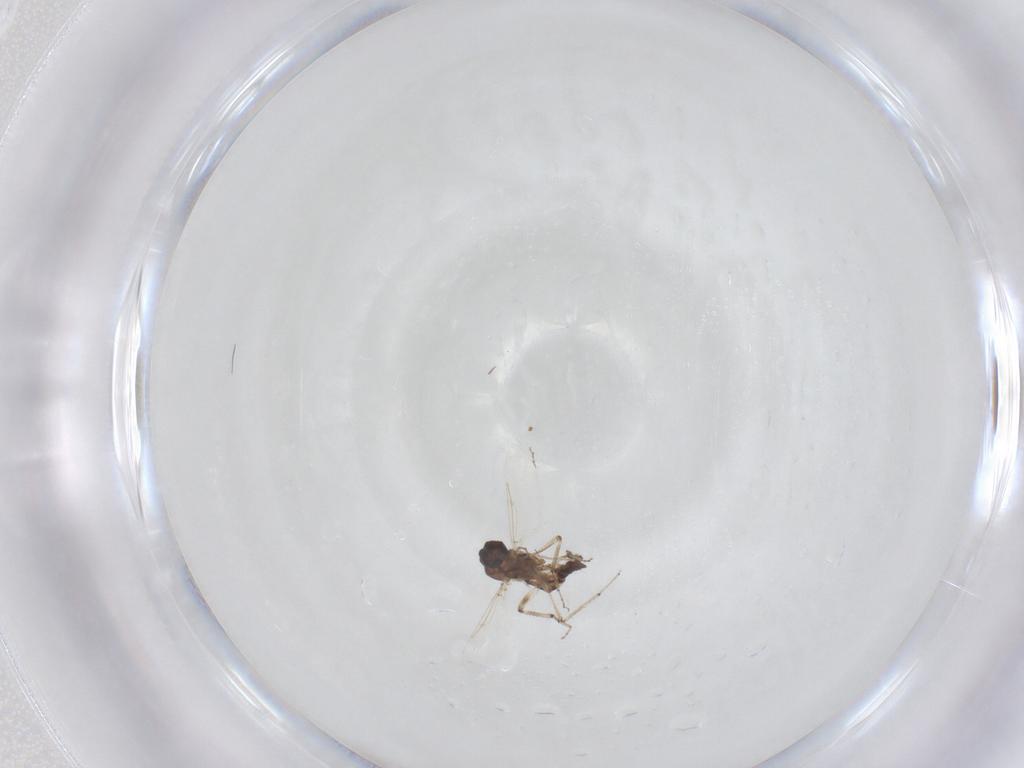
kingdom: Animalia
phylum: Arthropoda
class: Insecta
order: Diptera
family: Ceratopogonidae
